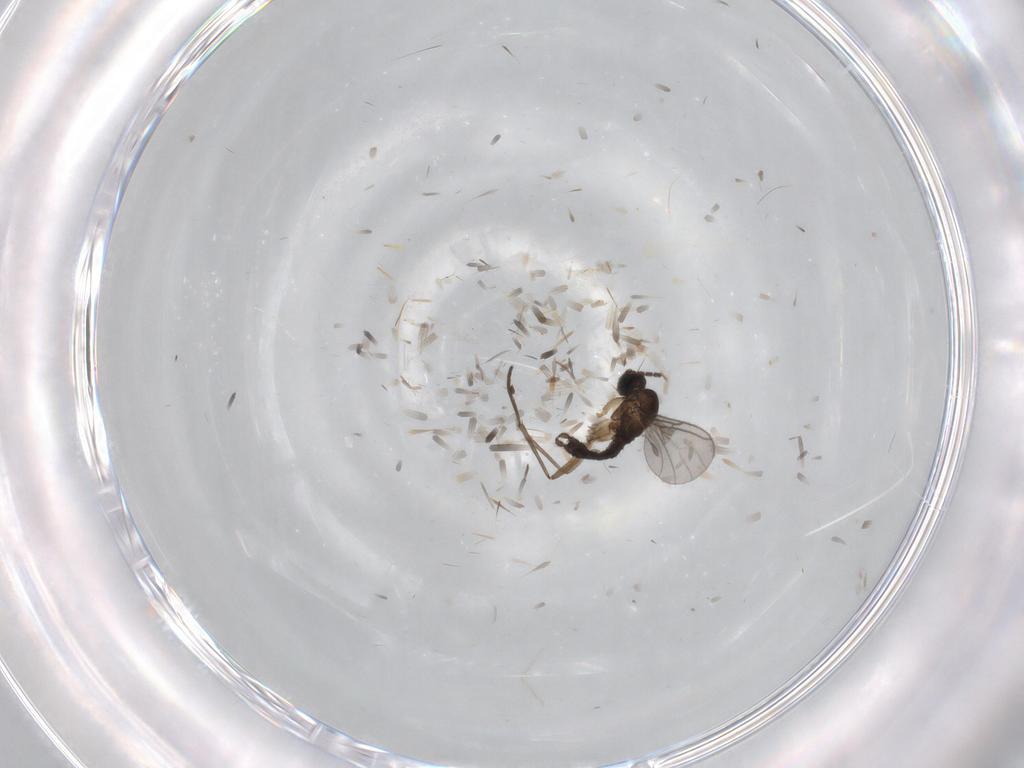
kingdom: Animalia
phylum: Arthropoda
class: Insecta
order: Diptera
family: Sciaridae
